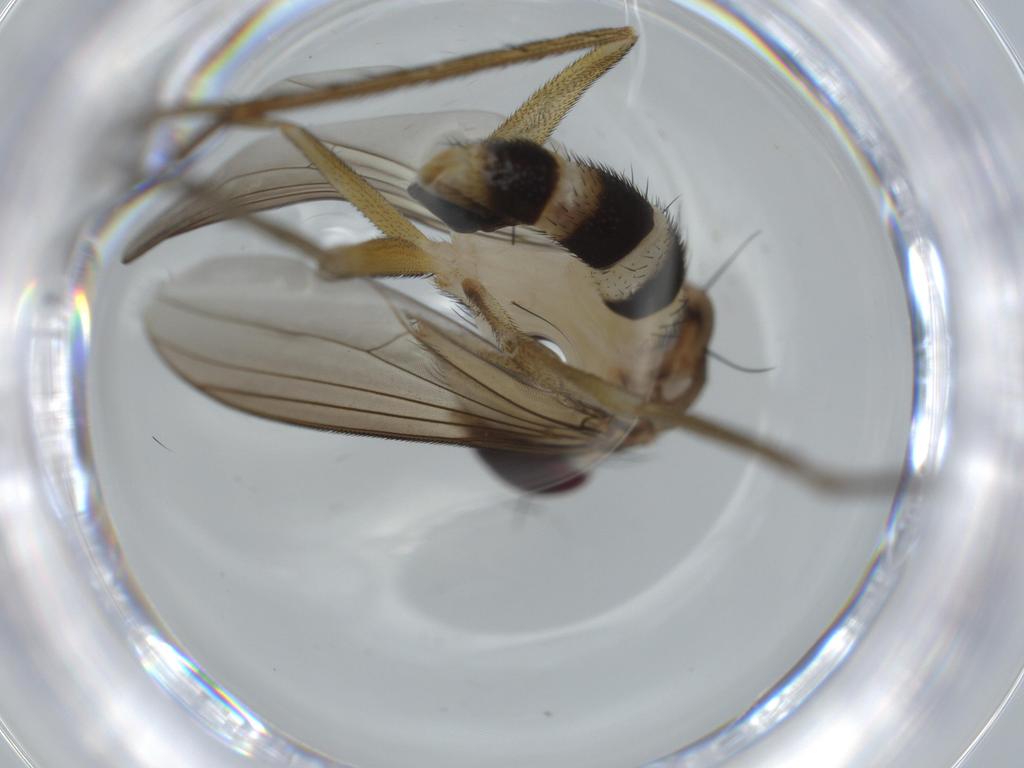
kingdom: Animalia
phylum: Arthropoda
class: Insecta
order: Diptera
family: Dolichopodidae
